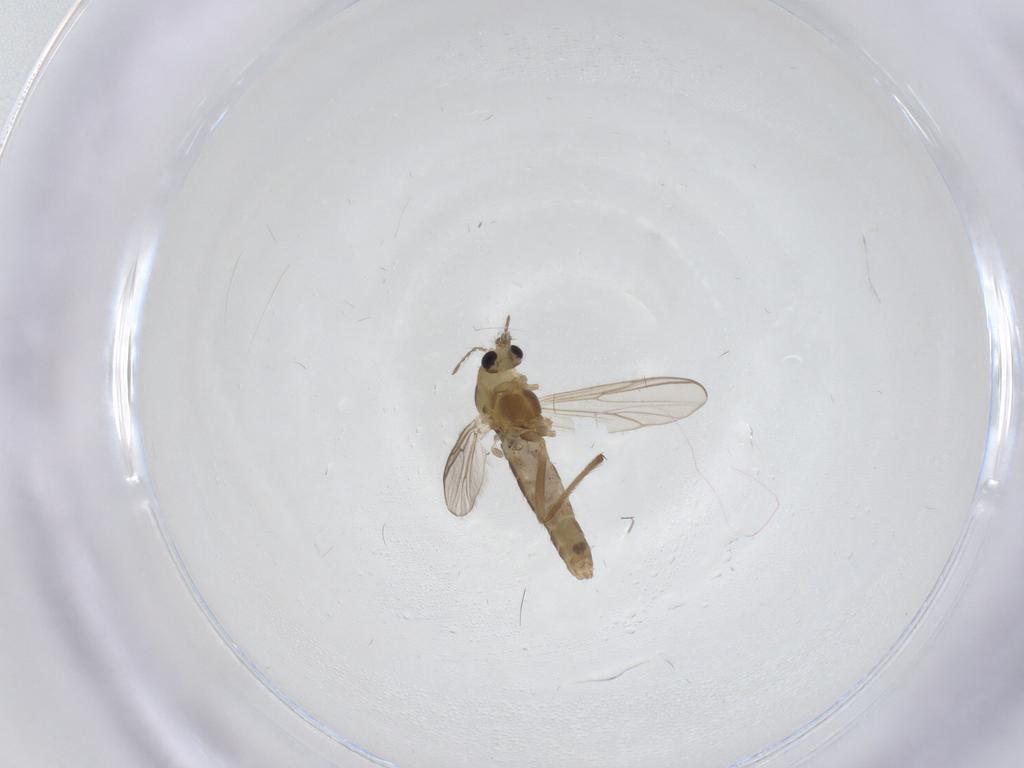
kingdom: Animalia
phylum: Arthropoda
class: Insecta
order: Diptera
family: Chironomidae
